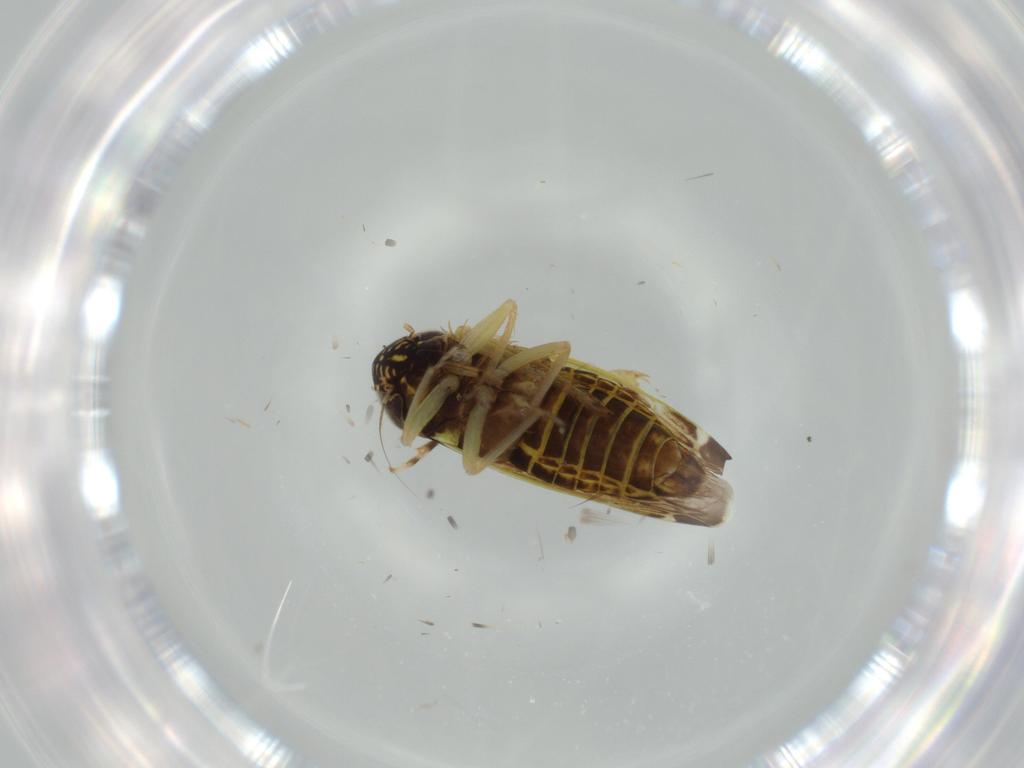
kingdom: Animalia
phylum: Arthropoda
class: Insecta
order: Hemiptera
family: Cicadellidae
